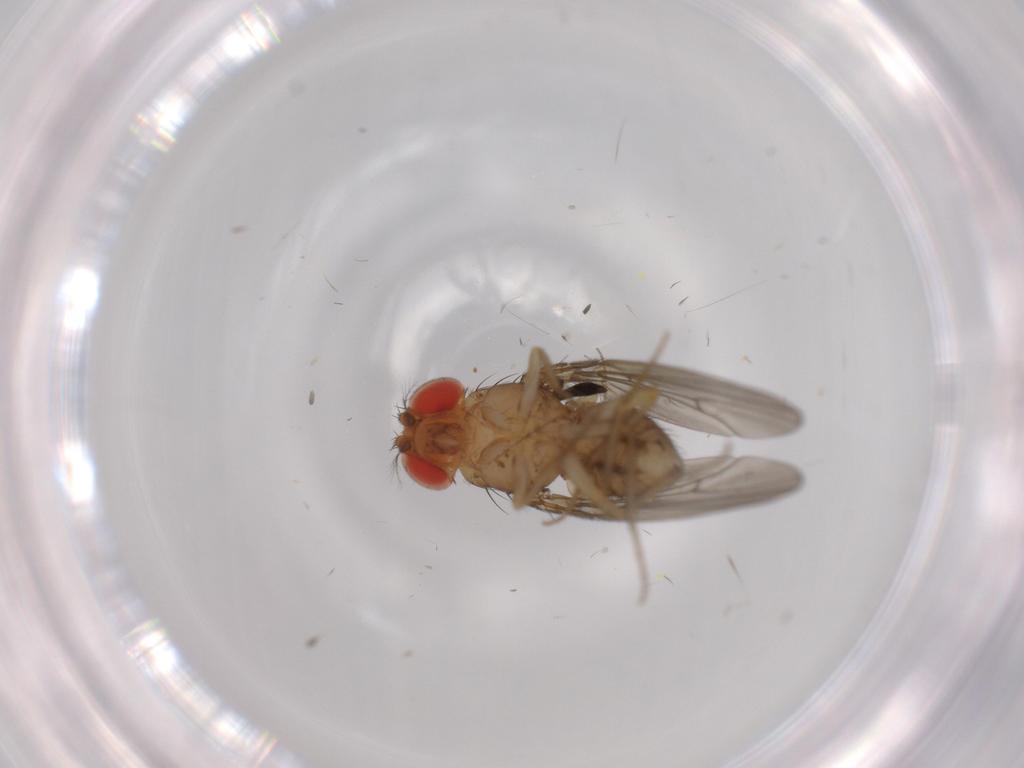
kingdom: Animalia
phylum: Arthropoda
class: Insecta
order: Diptera
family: Drosophilidae
